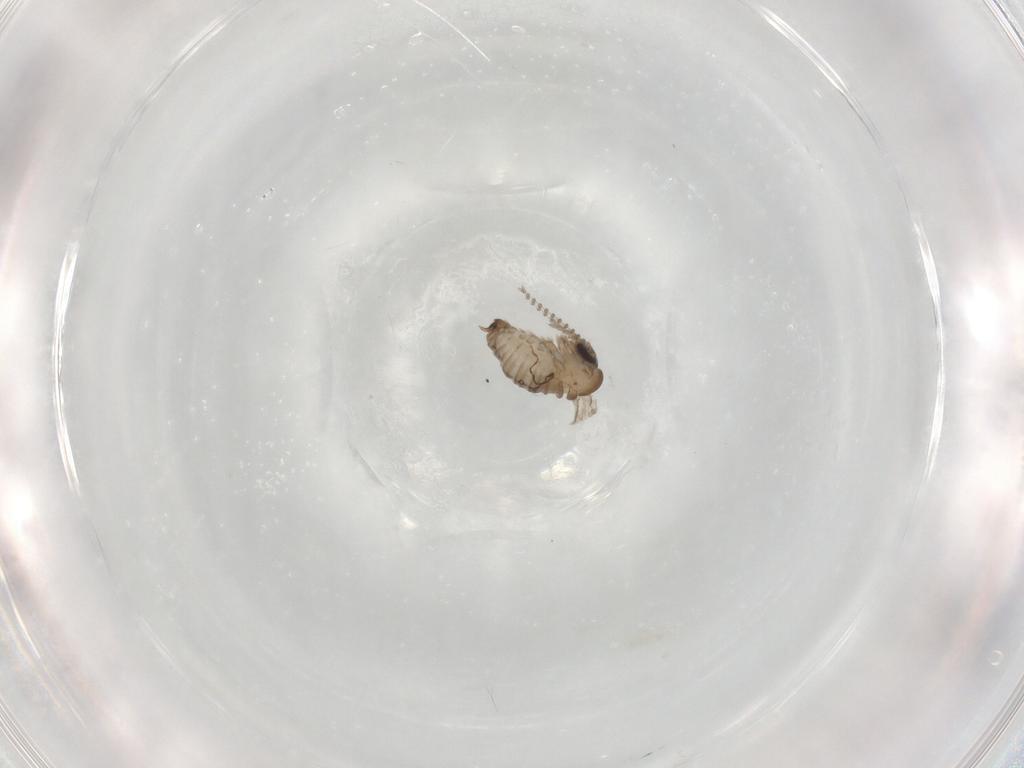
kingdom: Animalia
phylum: Arthropoda
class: Insecta
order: Diptera
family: Psychodidae
